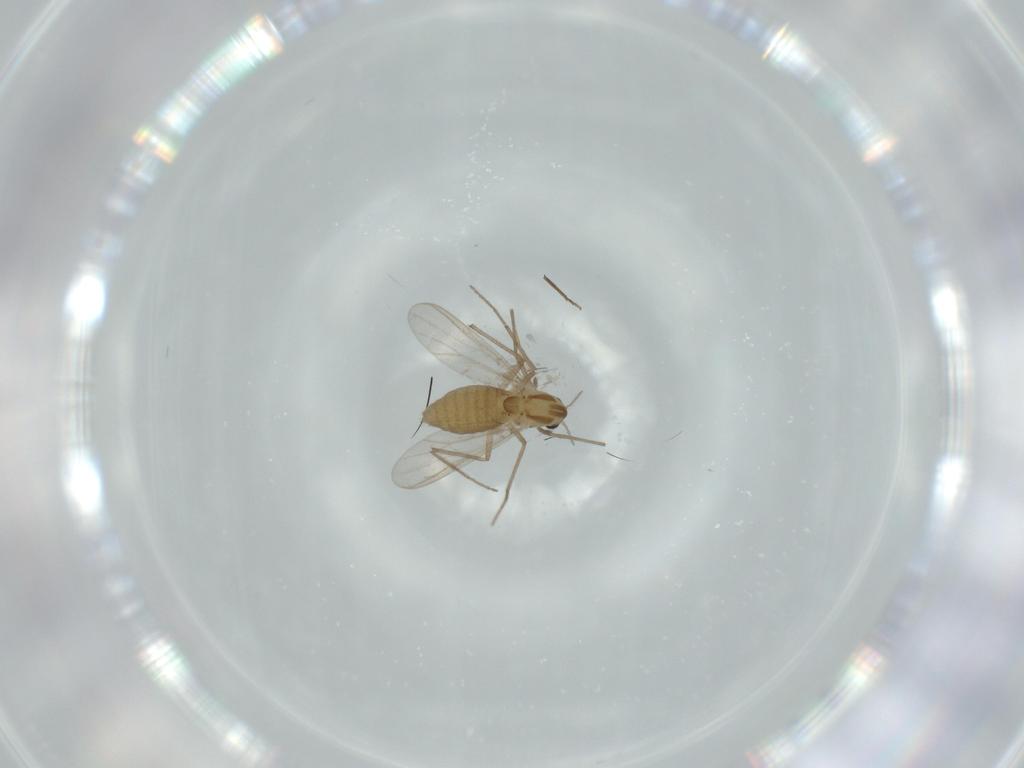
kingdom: Animalia
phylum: Arthropoda
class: Insecta
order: Diptera
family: Chironomidae
